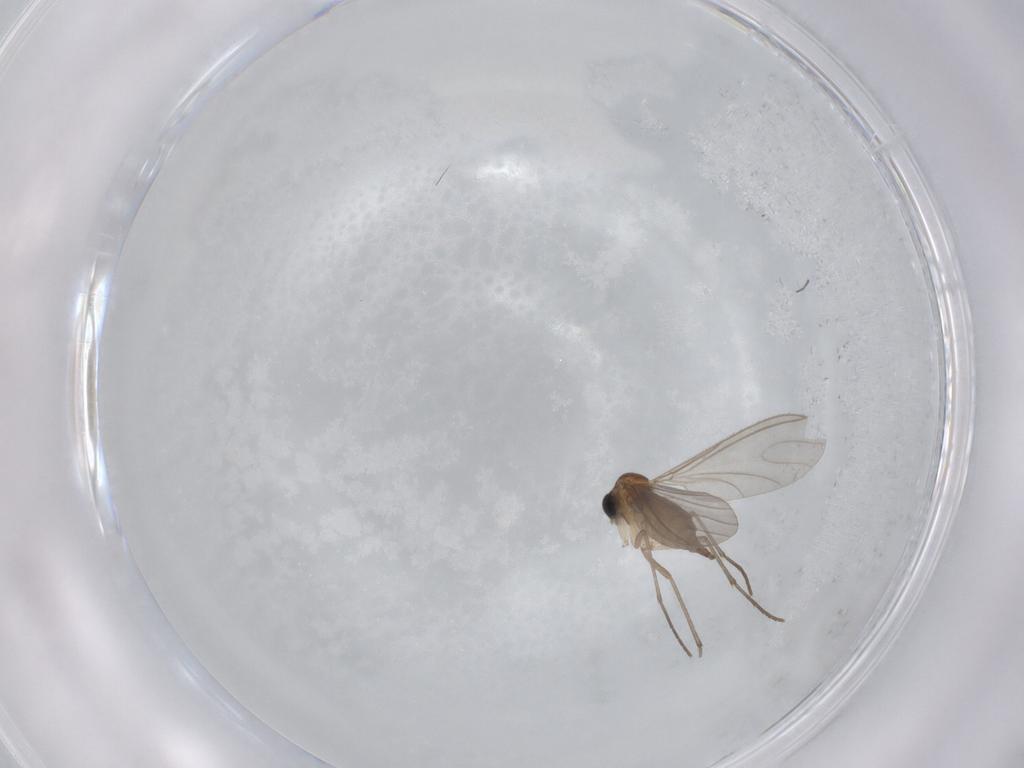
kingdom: Animalia
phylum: Arthropoda
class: Insecta
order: Diptera
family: Sciaridae
